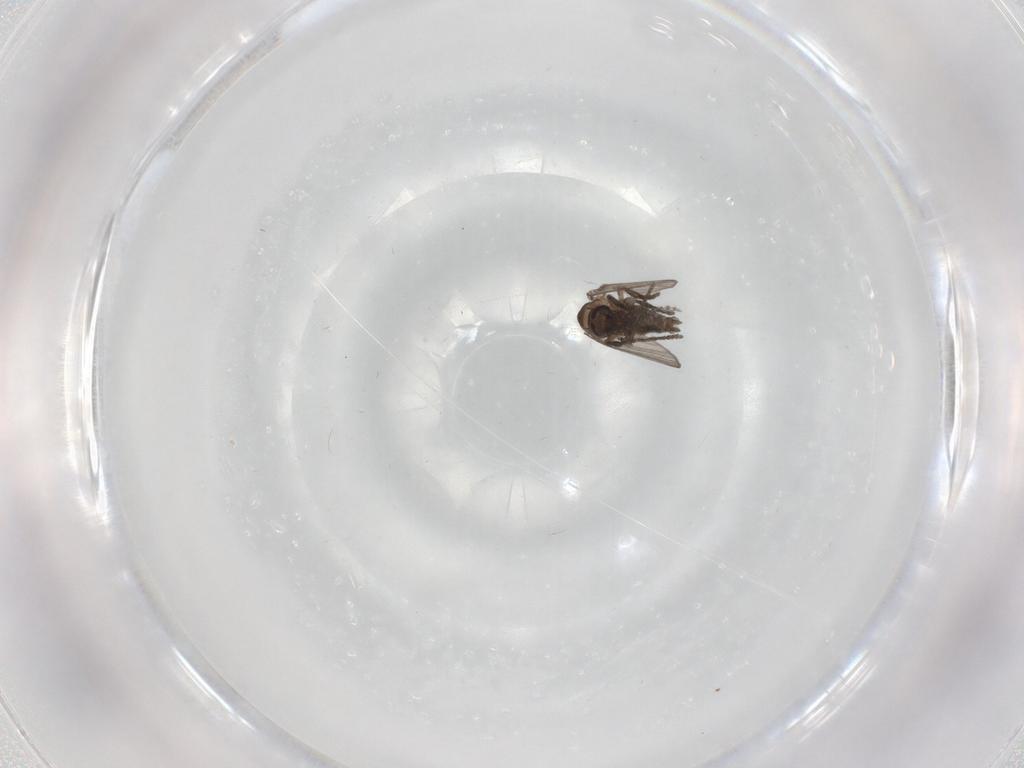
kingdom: Animalia
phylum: Arthropoda
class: Insecta
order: Diptera
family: Psychodidae
